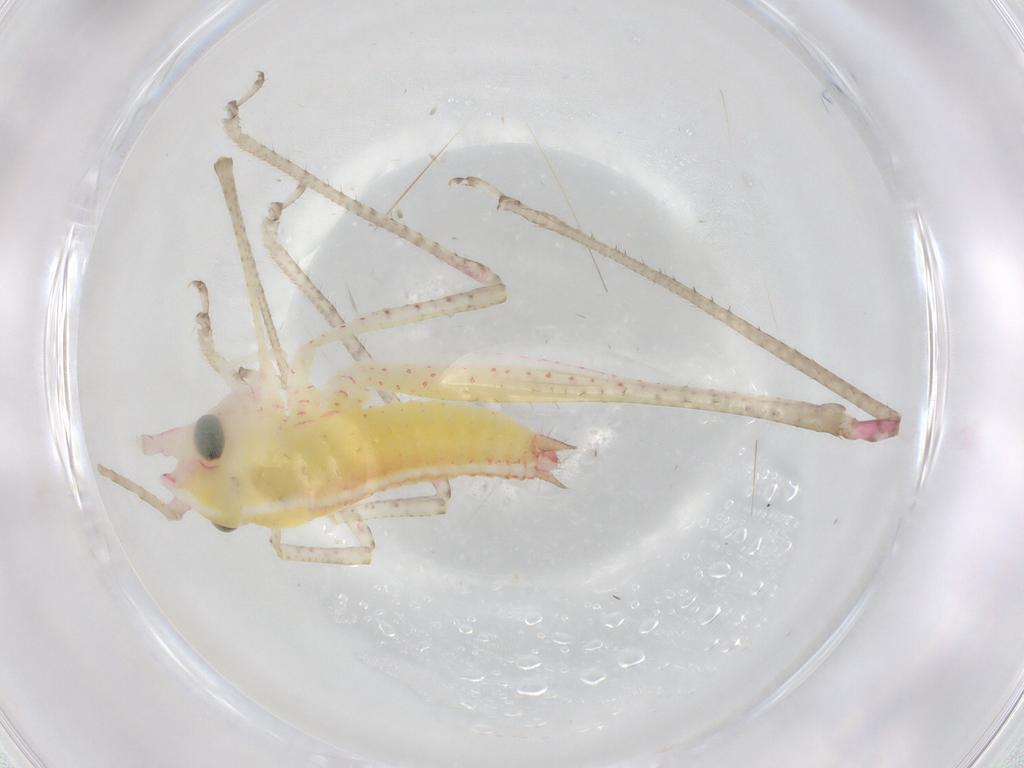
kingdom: Animalia
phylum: Arthropoda
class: Insecta
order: Orthoptera
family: Tettigoniidae
